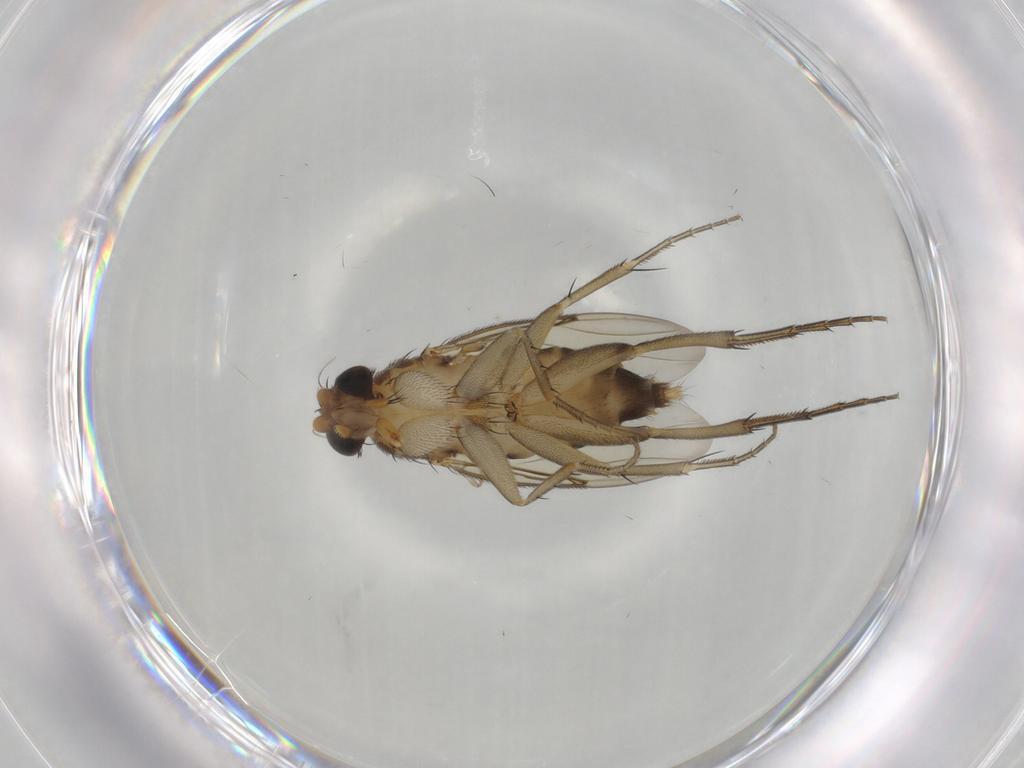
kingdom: Animalia
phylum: Arthropoda
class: Insecta
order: Diptera
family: Phoridae
